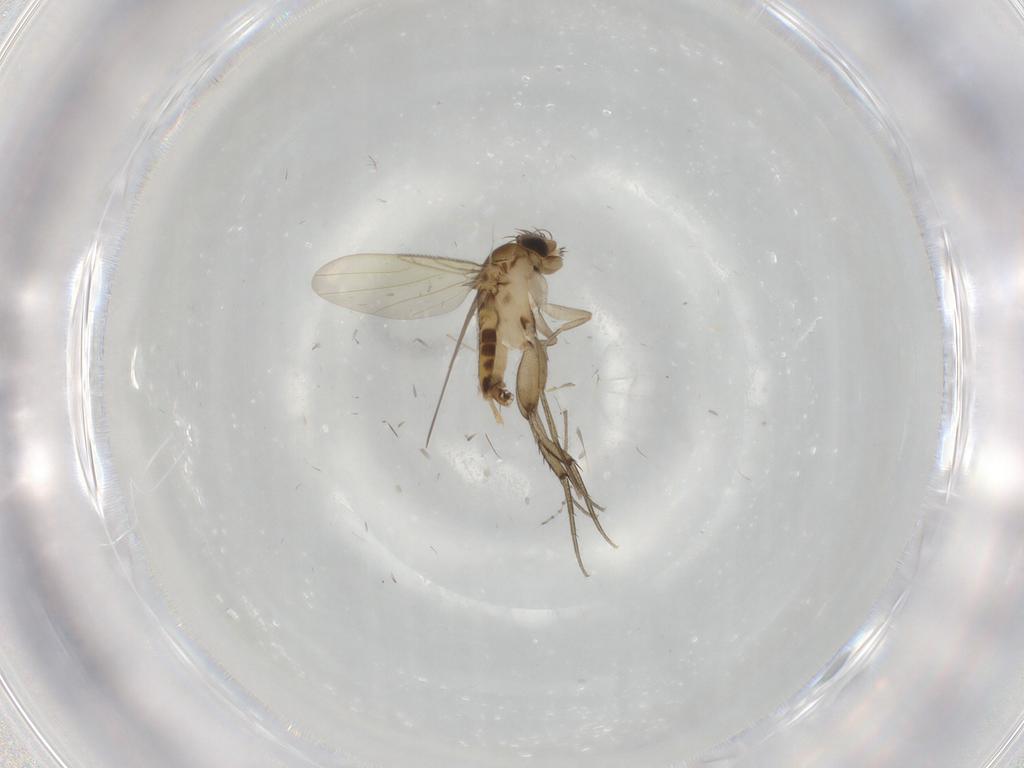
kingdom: Animalia
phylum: Arthropoda
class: Insecta
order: Diptera
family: Chironomidae
